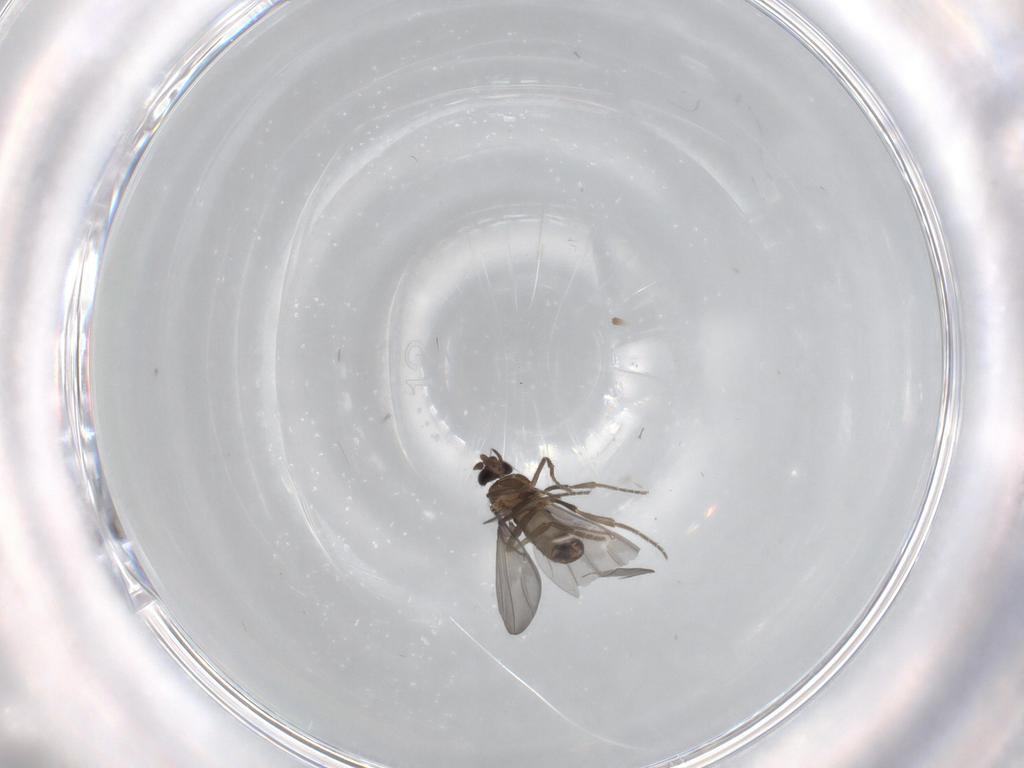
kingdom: Animalia
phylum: Arthropoda
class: Insecta
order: Diptera
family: Phoridae
